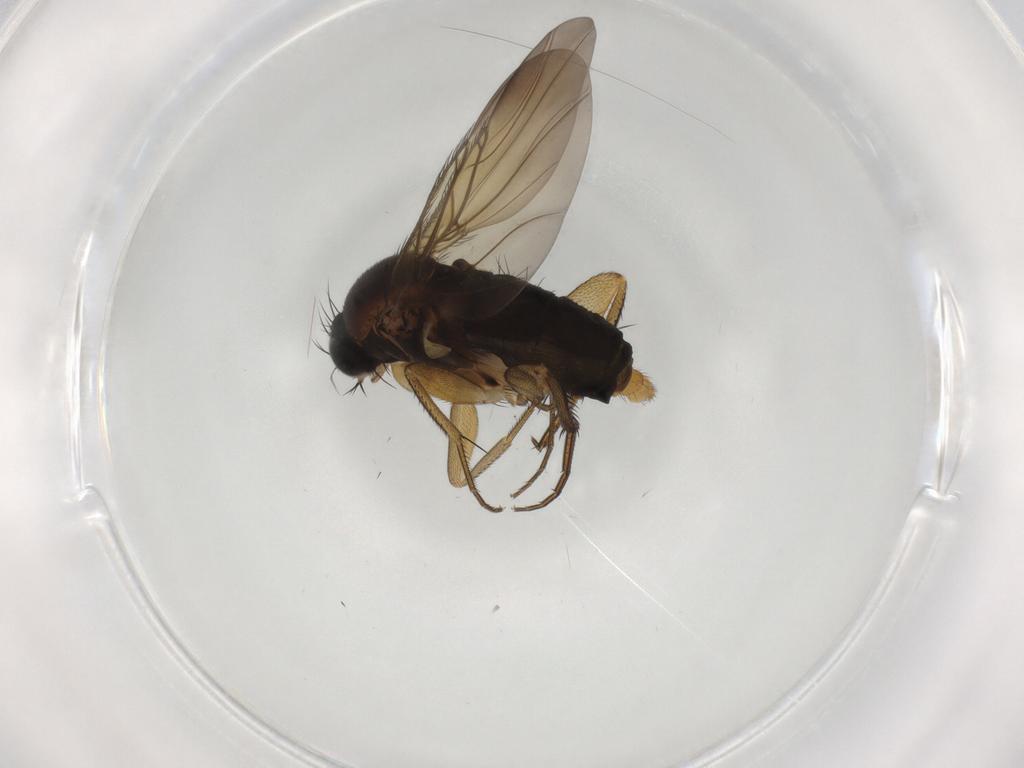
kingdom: Animalia
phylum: Arthropoda
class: Insecta
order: Diptera
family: Phoridae
